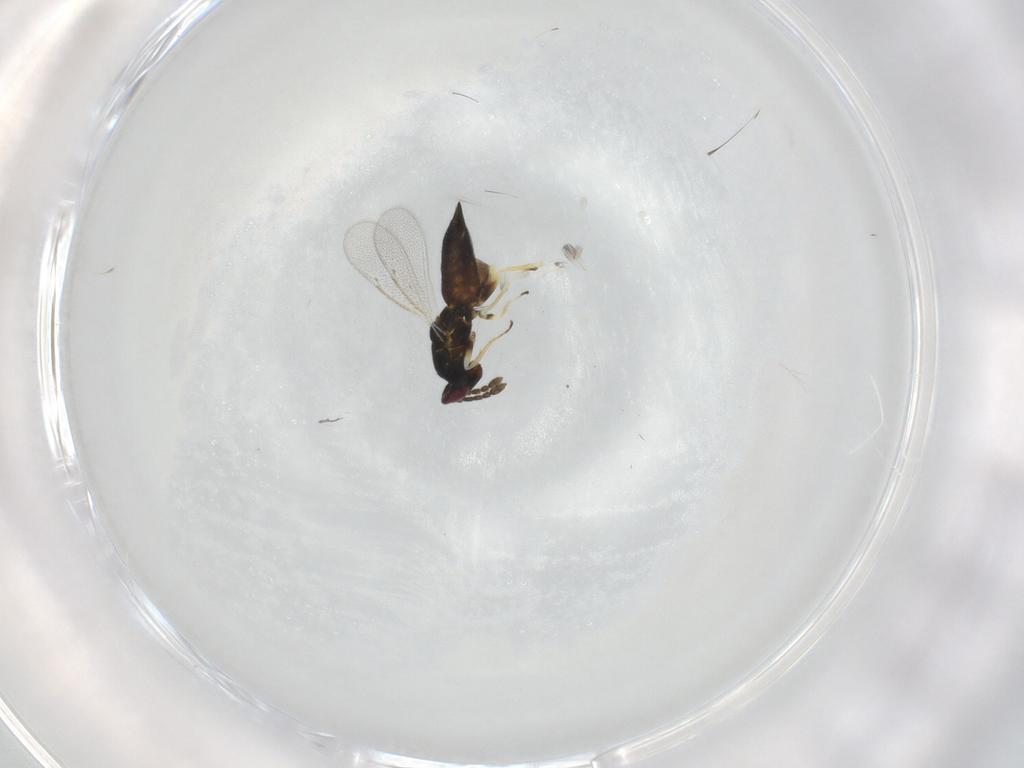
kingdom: Animalia
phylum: Arthropoda
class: Insecta
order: Hymenoptera
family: Eulophidae
